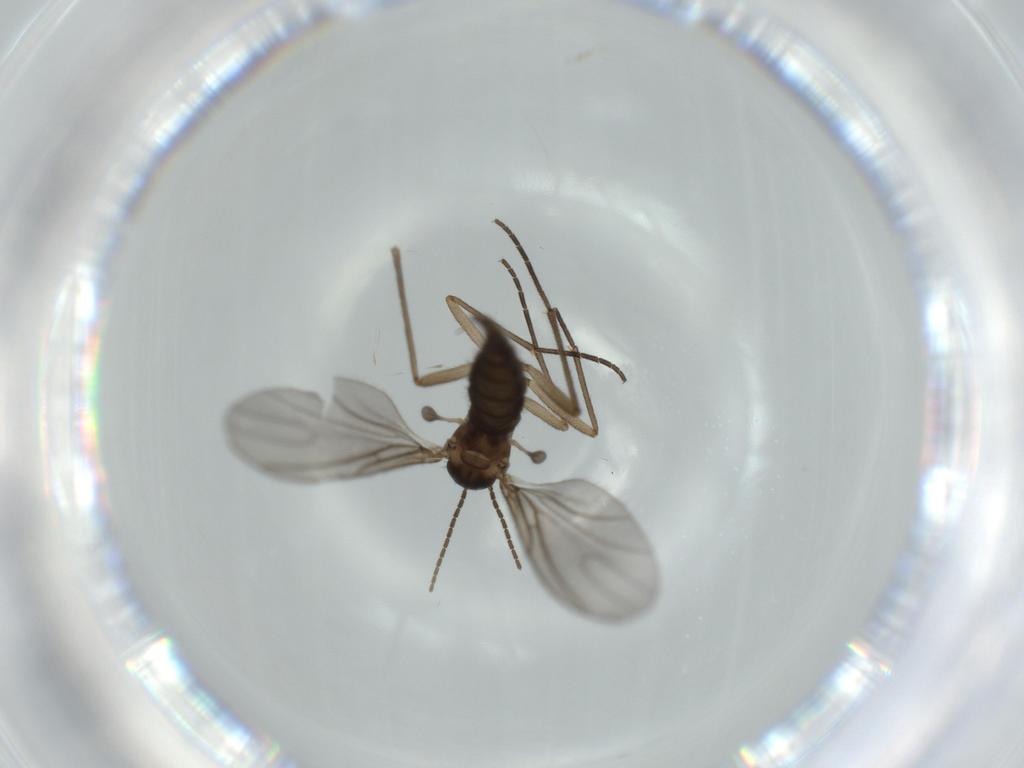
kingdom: Animalia
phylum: Arthropoda
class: Insecta
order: Diptera
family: Sciaridae
